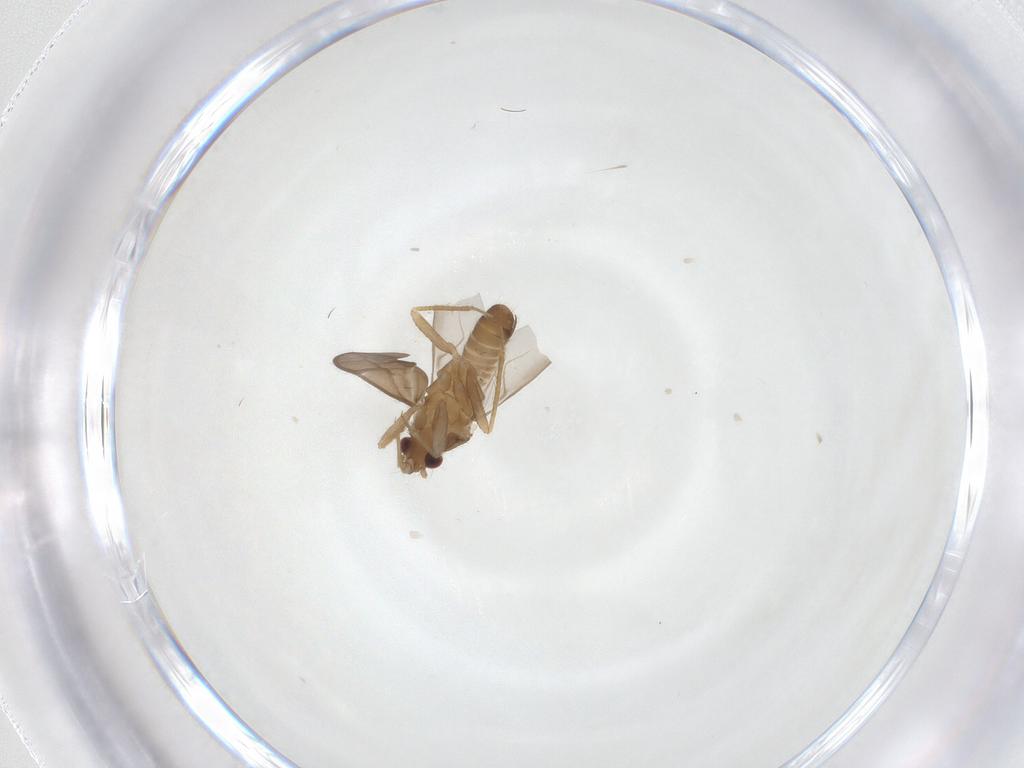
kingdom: Animalia
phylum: Arthropoda
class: Insecta
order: Hemiptera
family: Ceratocombidae
